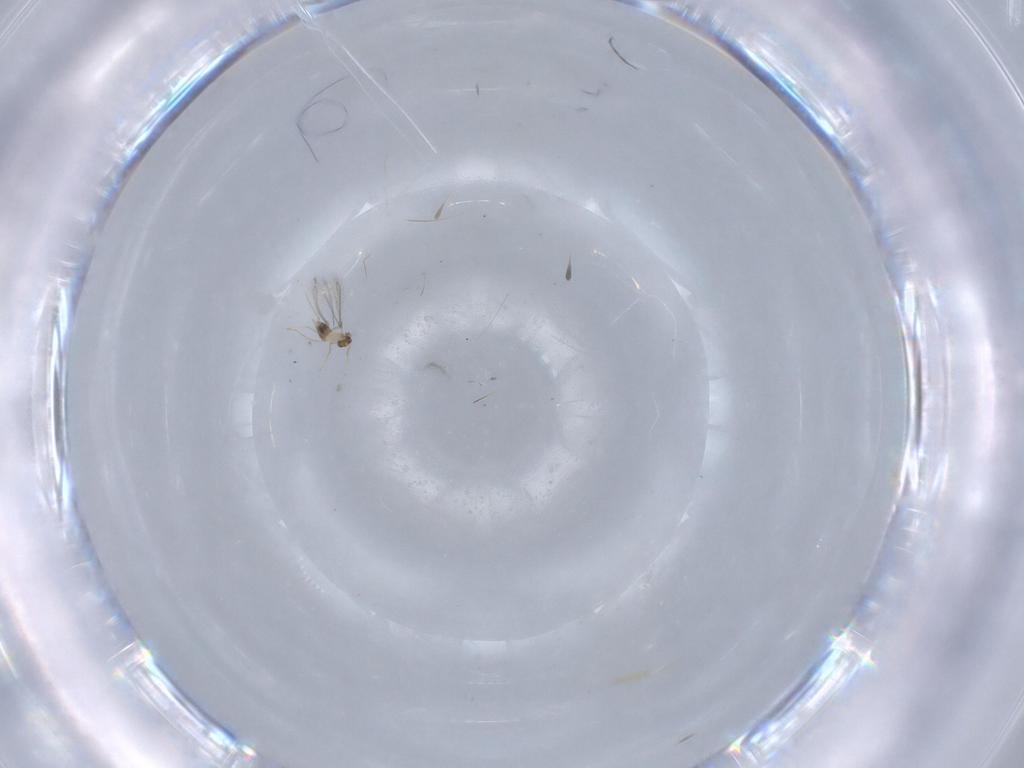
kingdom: Animalia
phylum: Arthropoda
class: Insecta
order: Hymenoptera
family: Mymaridae
